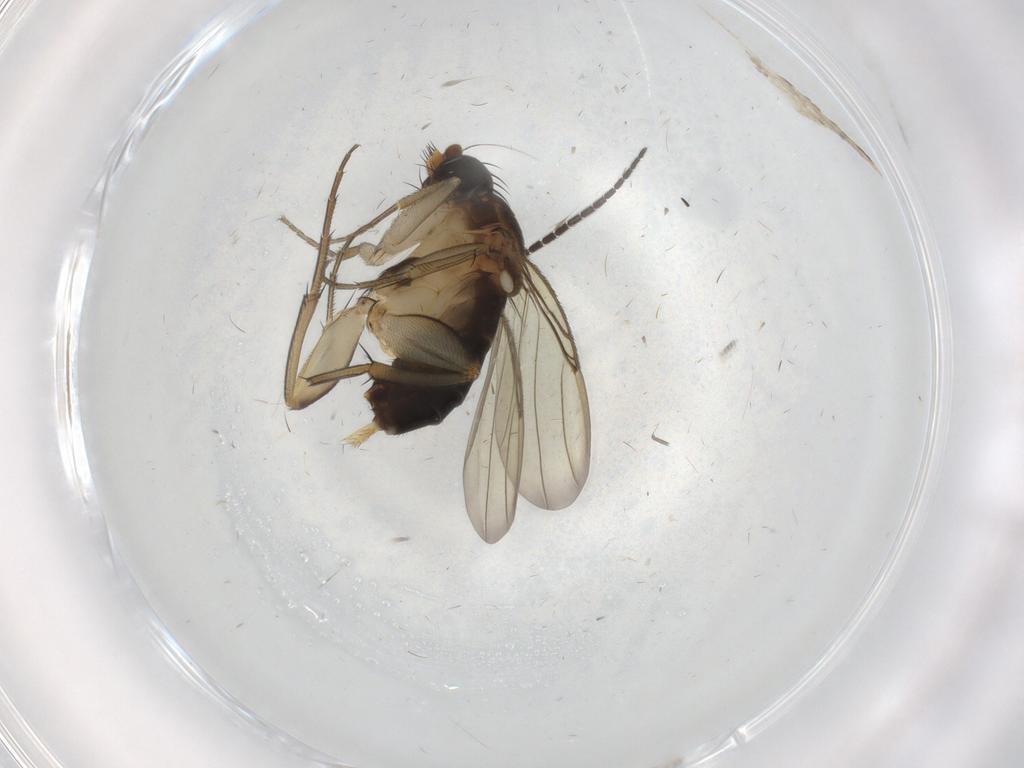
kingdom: Animalia
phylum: Arthropoda
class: Insecta
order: Diptera
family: Phoridae
